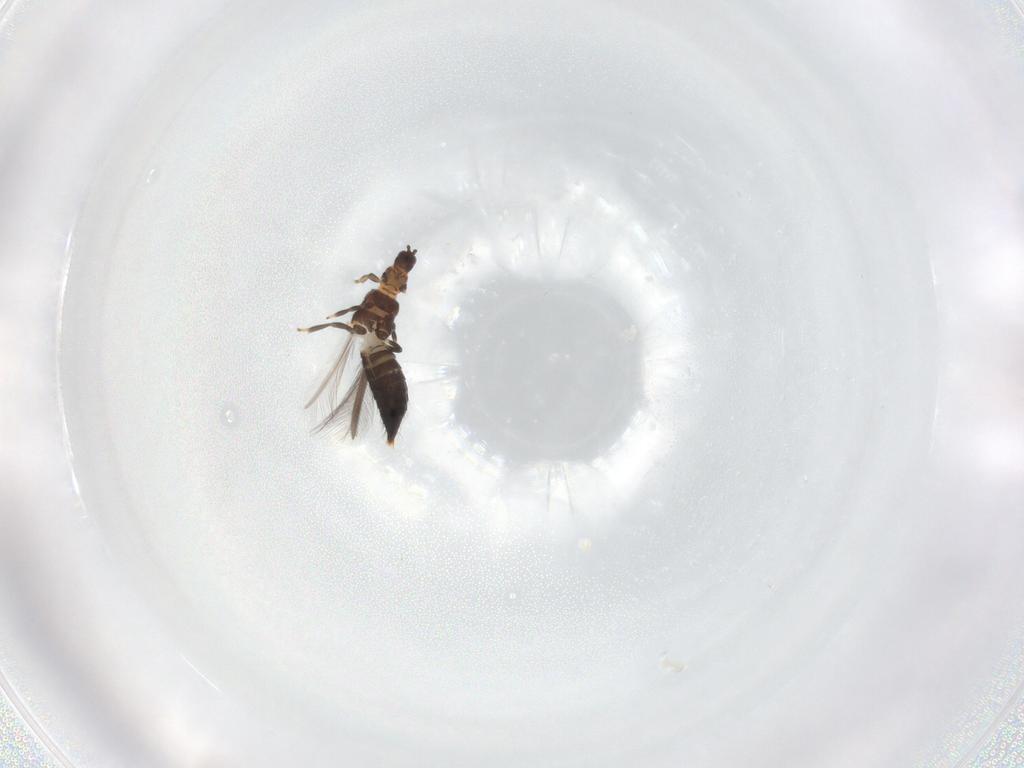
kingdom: Animalia
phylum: Arthropoda
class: Insecta
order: Thysanoptera
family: Thripidae
